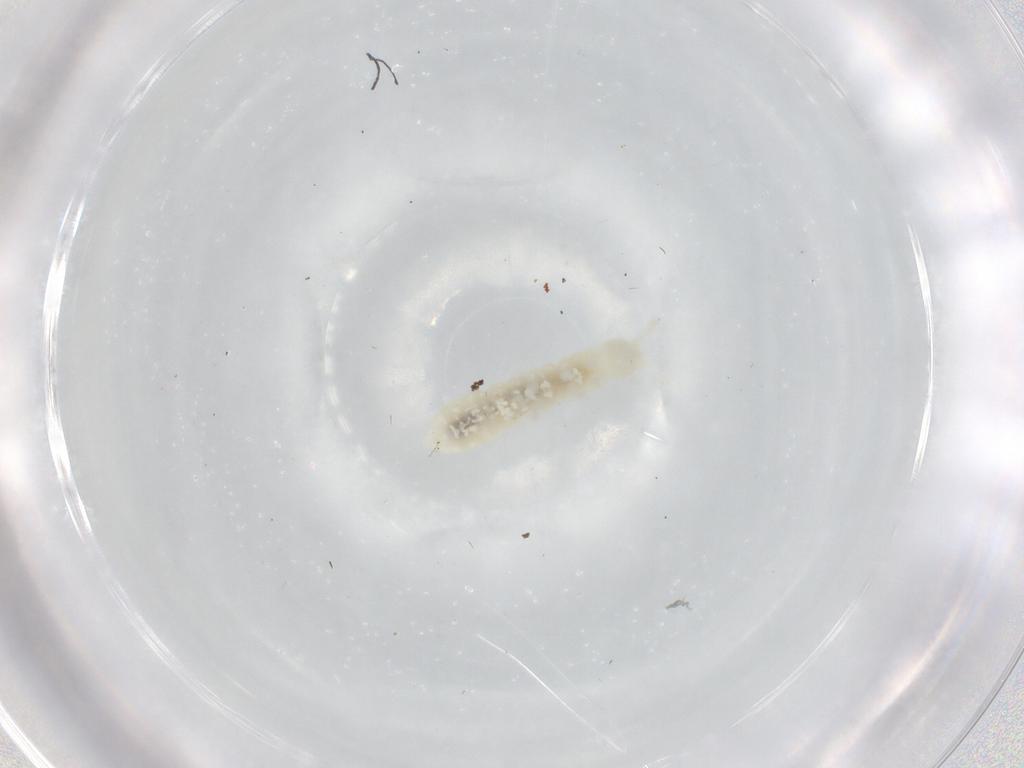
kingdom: Animalia
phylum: Arthropoda
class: Collembola
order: Poduromorpha
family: Onychiuridae
